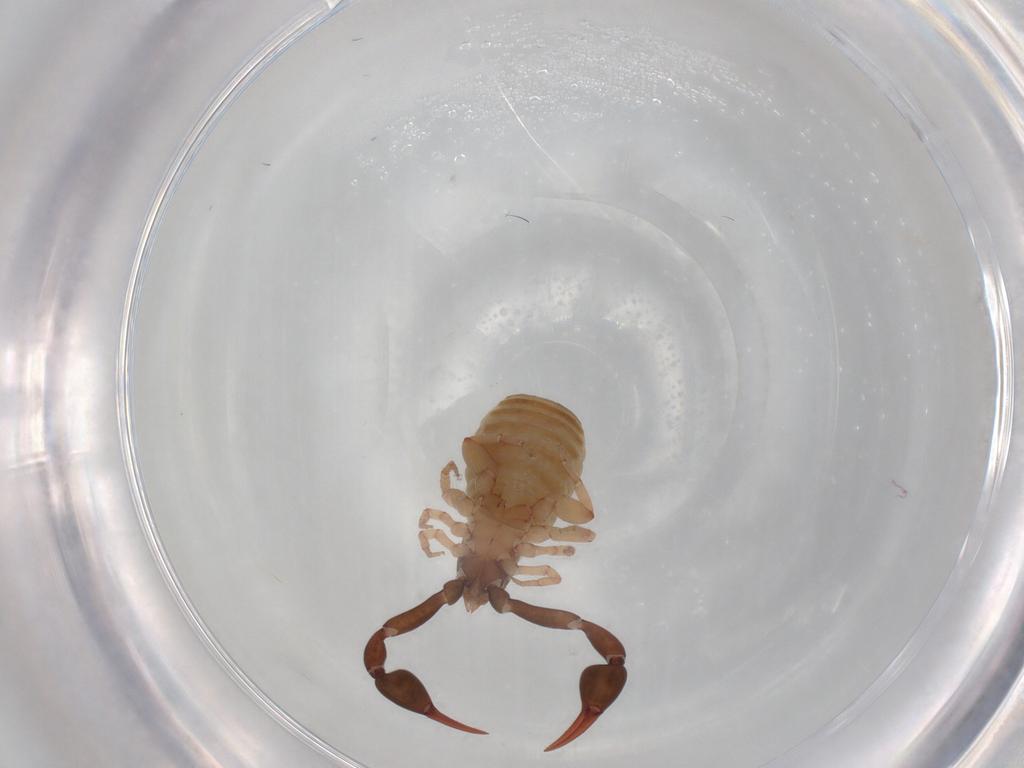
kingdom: Animalia
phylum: Arthropoda
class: Arachnida
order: Pseudoscorpiones
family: Olpiidae
